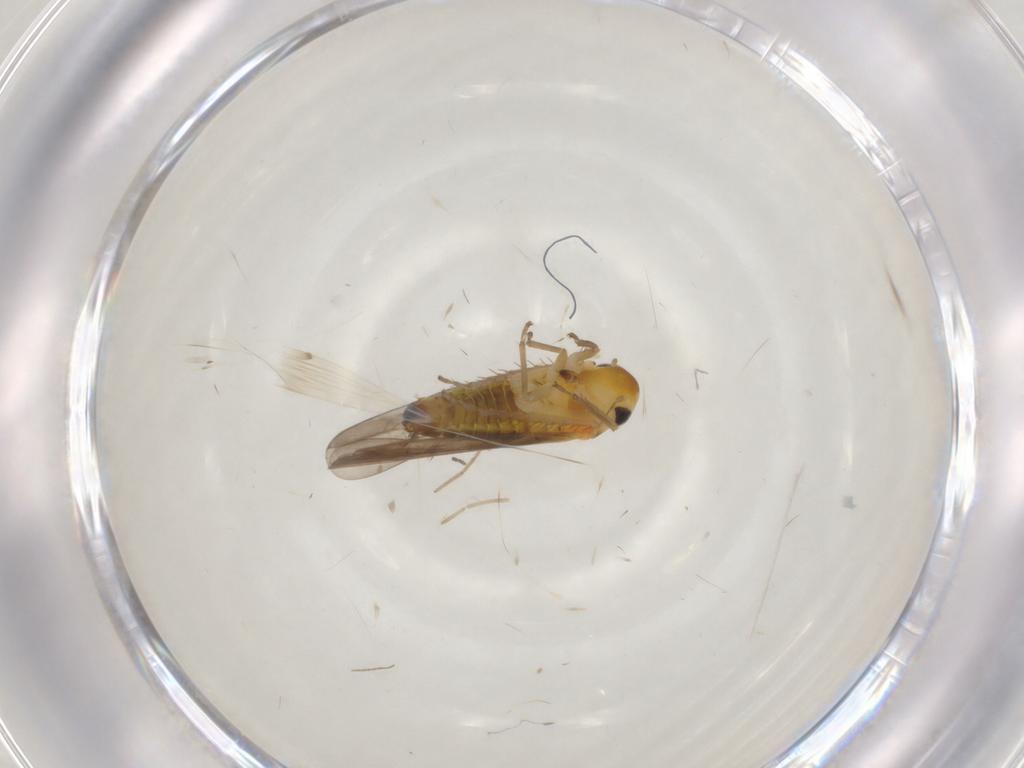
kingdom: Animalia
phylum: Arthropoda
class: Insecta
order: Hemiptera
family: Cicadellidae
